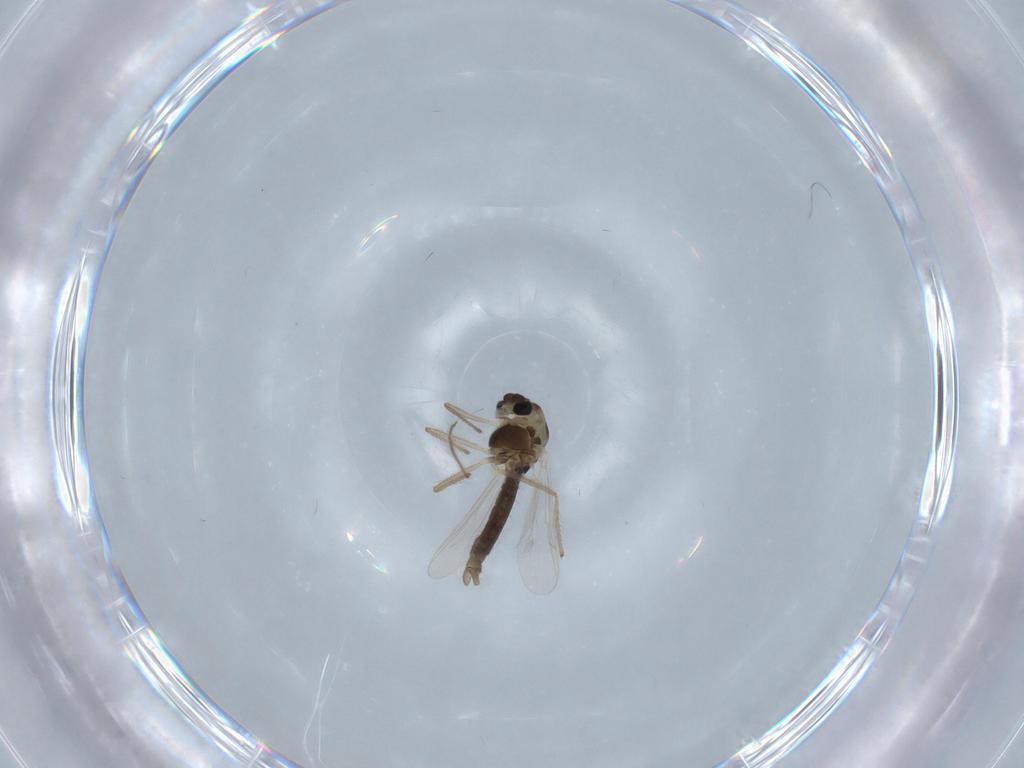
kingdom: Animalia
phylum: Arthropoda
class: Insecta
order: Diptera
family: Chironomidae
